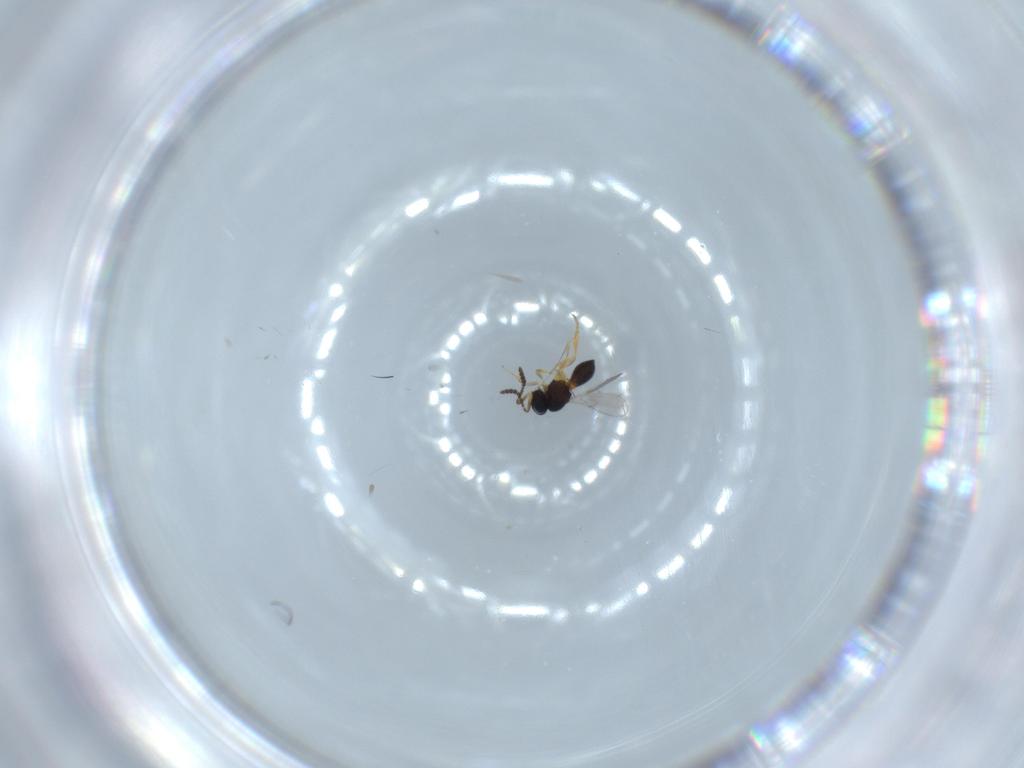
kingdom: Animalia
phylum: Arthropoda
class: Insecta
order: Hymenoptera
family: Scelionidae
